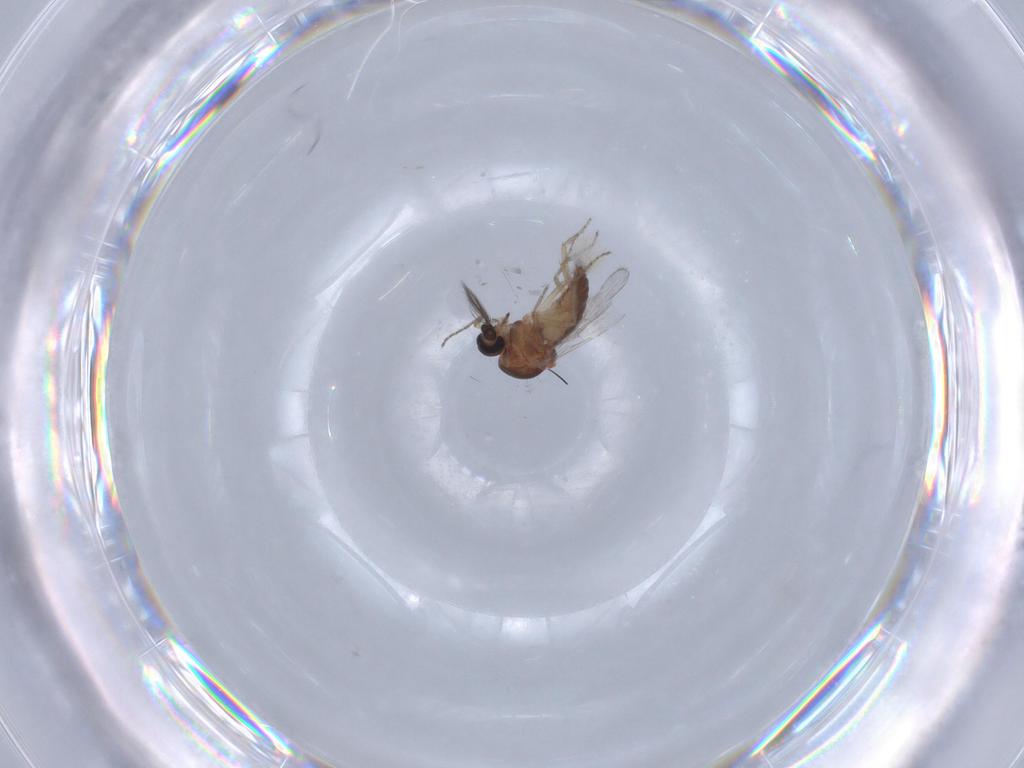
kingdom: Animalia
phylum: Arthropoda
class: Insecta
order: Diptera
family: Ceratopogonidae
